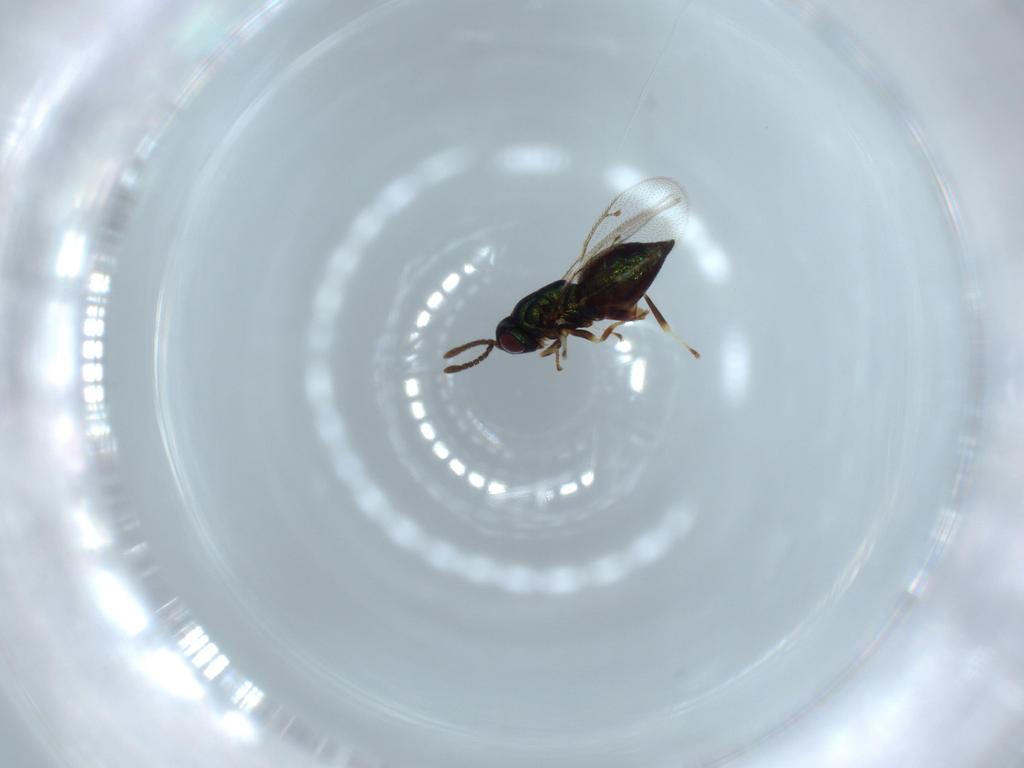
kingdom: Animalia
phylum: Arthropoda
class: Insecta
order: Hymenoptera
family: Pteromalidae
